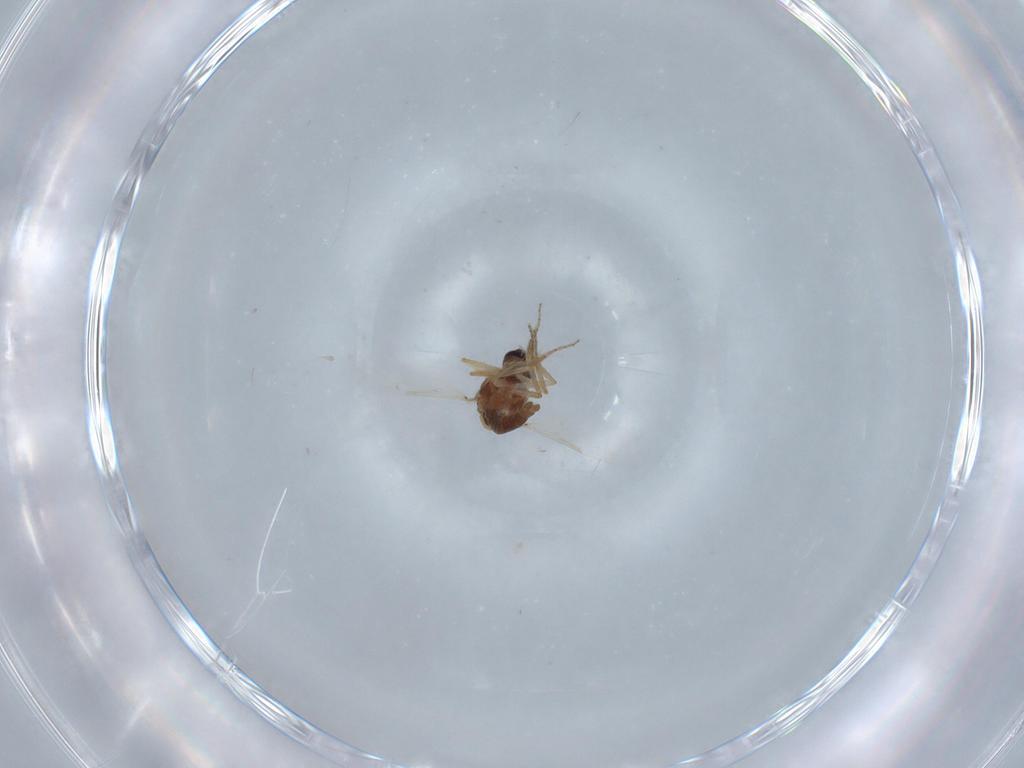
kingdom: Animalia
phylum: Arthropoda
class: Insecta
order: Diptera
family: Ceratopogonidae
